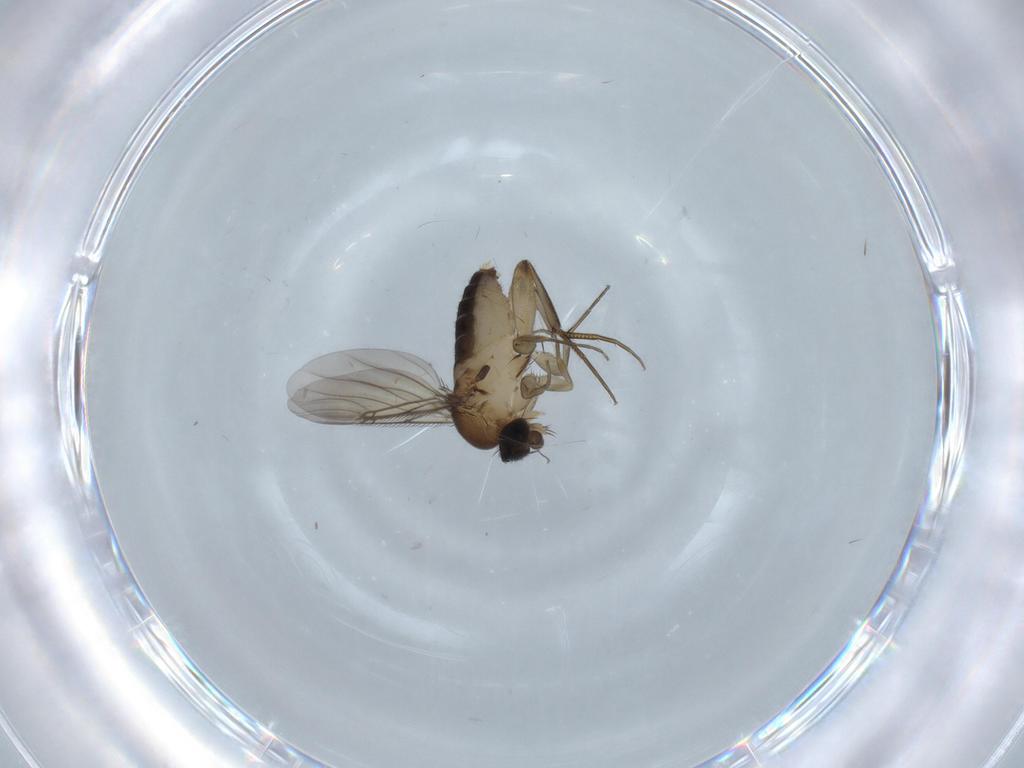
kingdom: Animalia
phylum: Arthropoda
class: Insecta
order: Diptera
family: Phoridae
